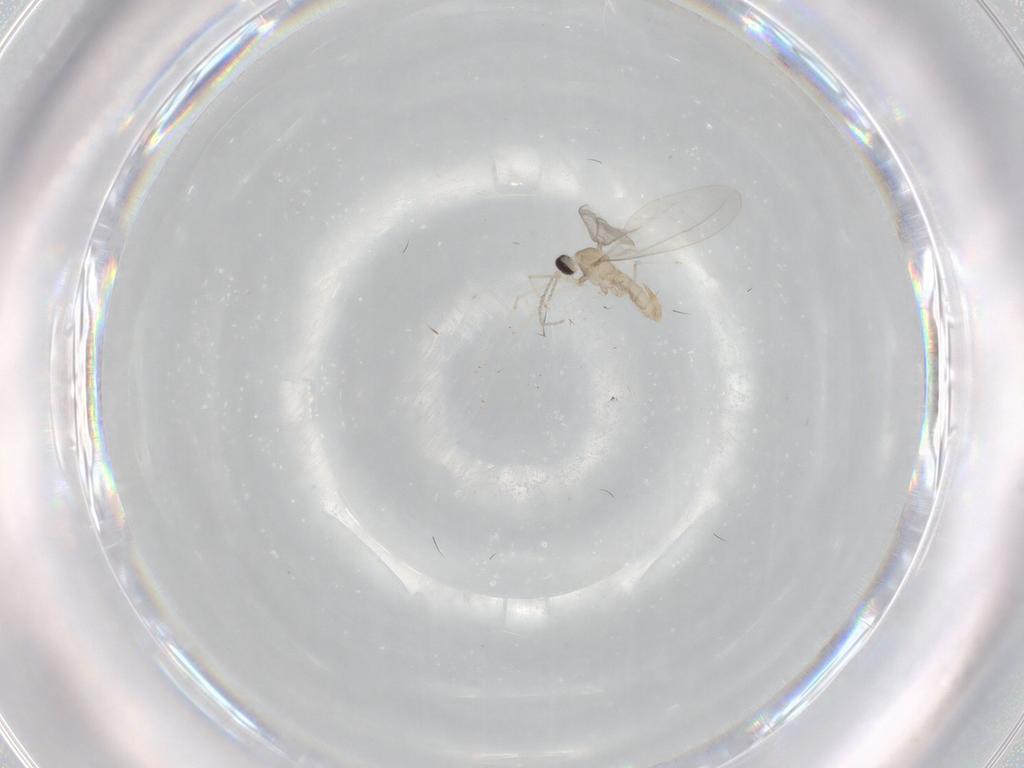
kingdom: Animalia
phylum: Arthropoda
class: Insecta
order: Diptera
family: Cecidomyiidae
